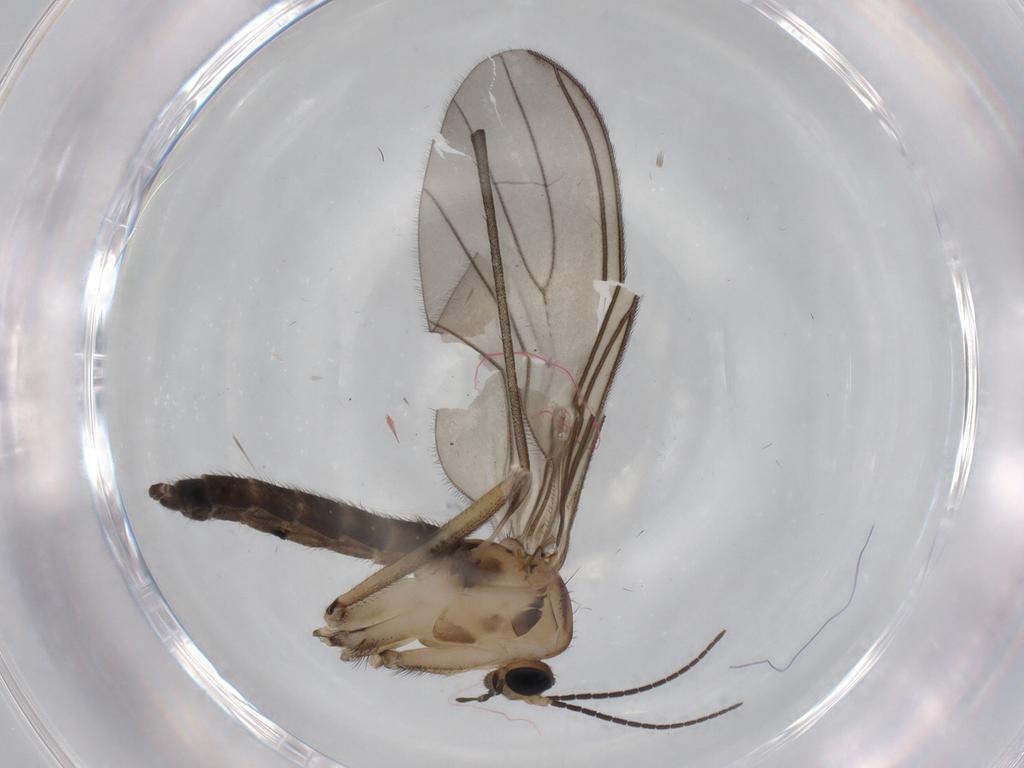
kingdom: Animalia
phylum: Arthropoda
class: Insecta
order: Diptera
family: Sciaridae
